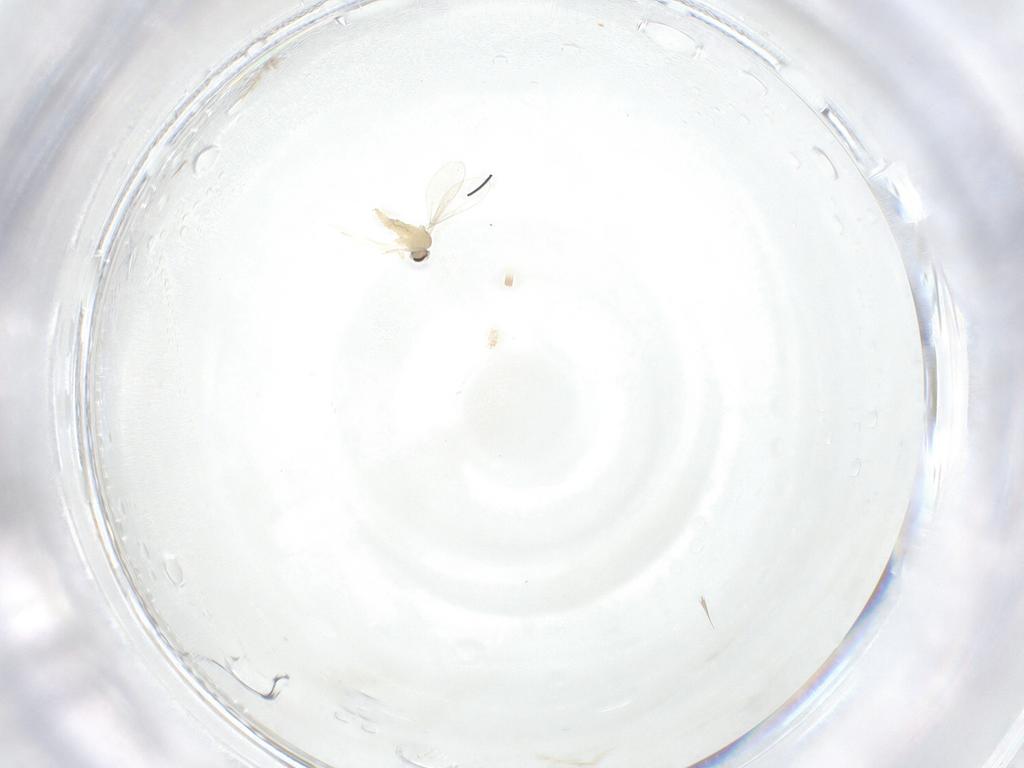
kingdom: Animalia
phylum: Arthropoda
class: Insecta
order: Diptera
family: Cecidomyiidae
